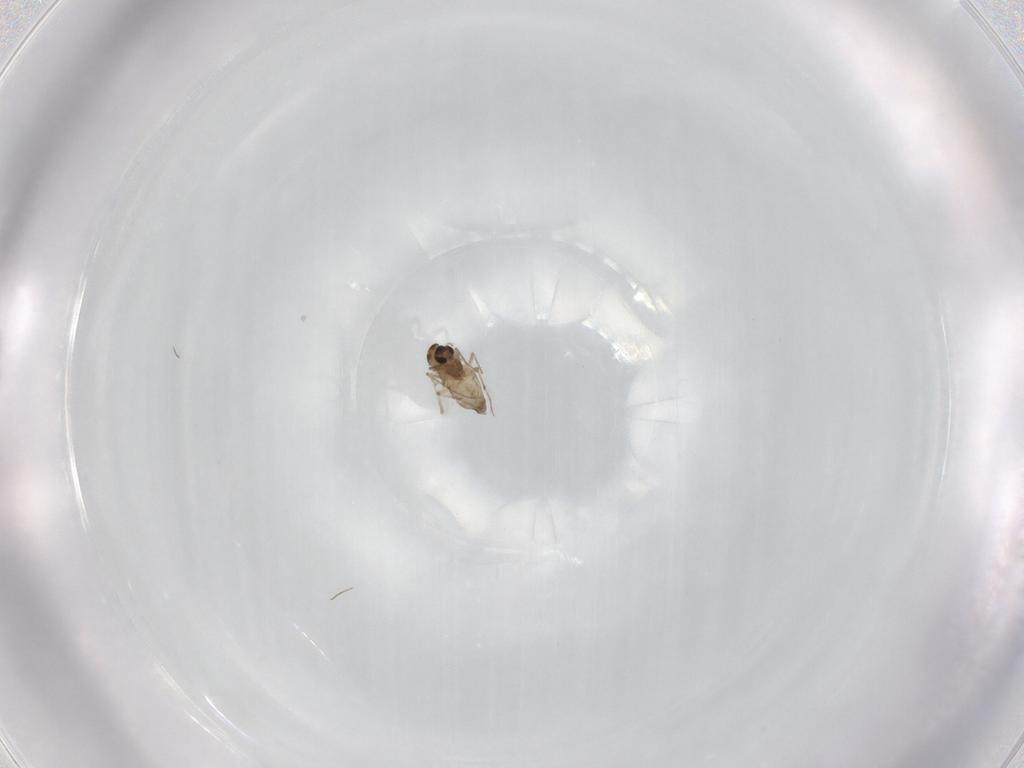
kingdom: Animalia
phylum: Arthropoda
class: Insecta
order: Diptera
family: Chironomidae
